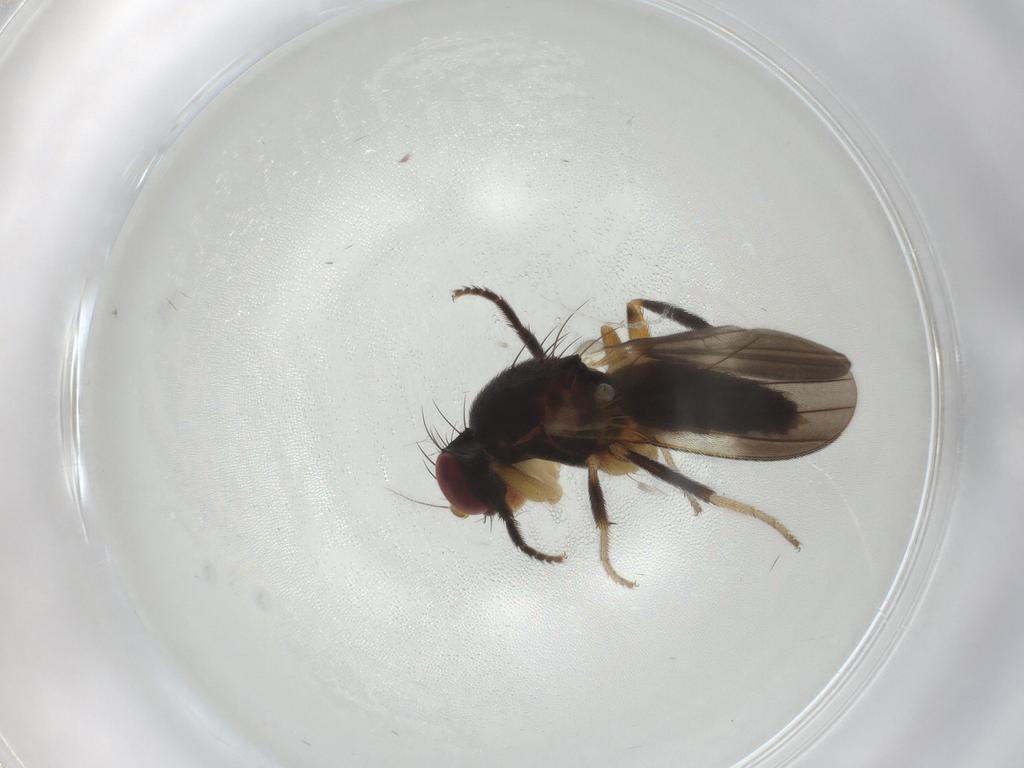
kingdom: Animalia
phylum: Arthropoda
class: Insecta
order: Diptera
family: Clusiidae
